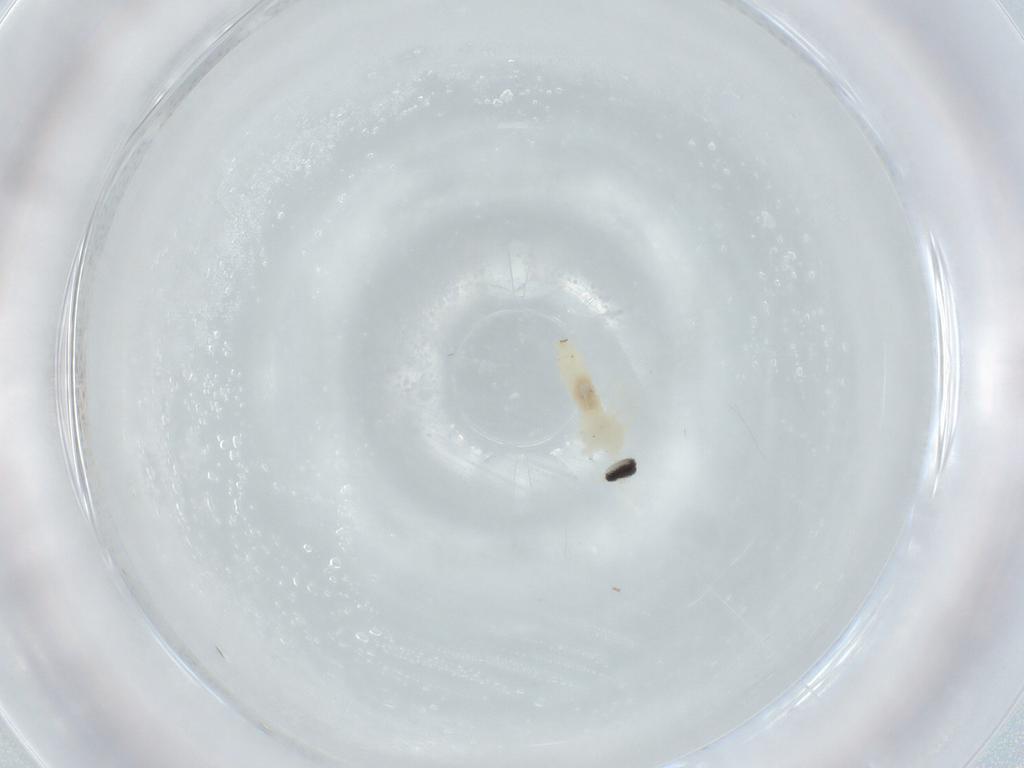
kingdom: Animalia
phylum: Arthropoda
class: Insecta
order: Diptera
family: Cecidomyiidae
